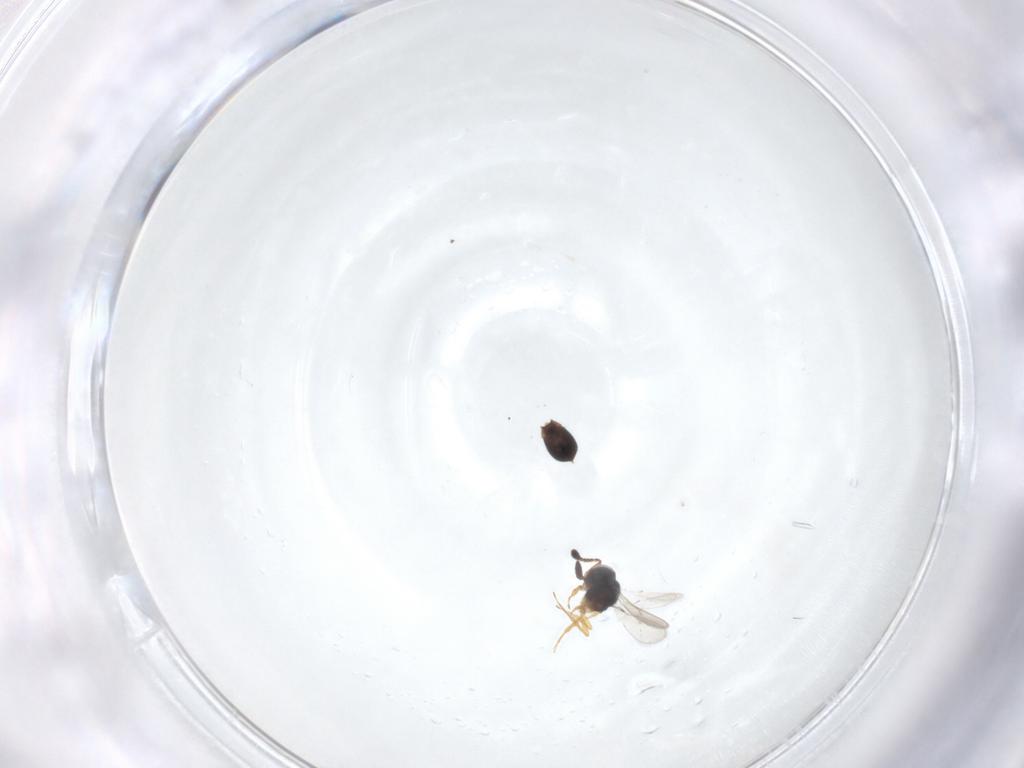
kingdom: Animalia
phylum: Arthropoda
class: Insecta
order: Hymenoptera
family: Scelionidae
